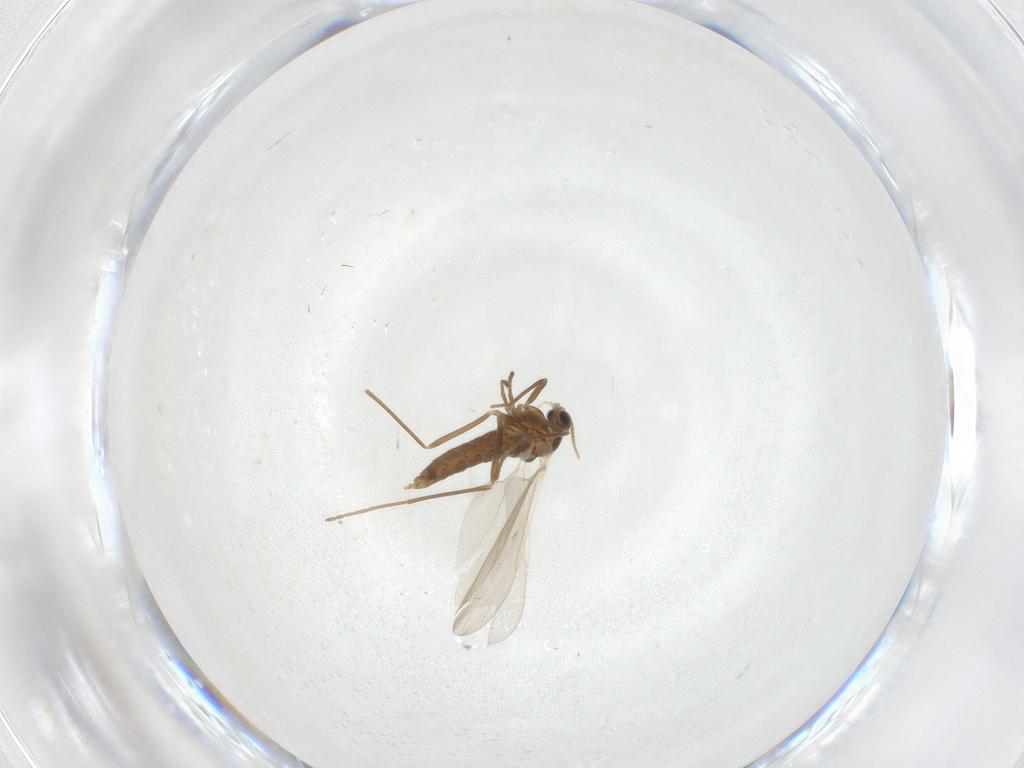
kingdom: Animalia
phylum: Arthropoda
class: Insecta
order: Diptera
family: Cecidomyiidae
